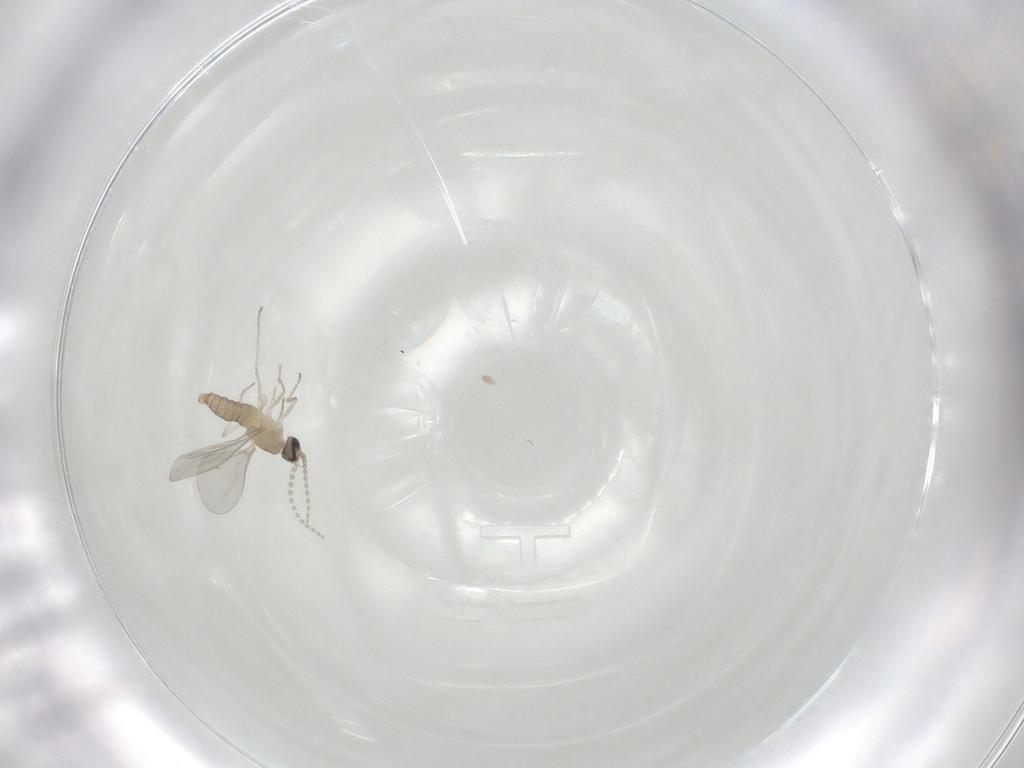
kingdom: Animalia
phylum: Arthropoda
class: Insecta
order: Diptera
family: Cecidomyiidae
